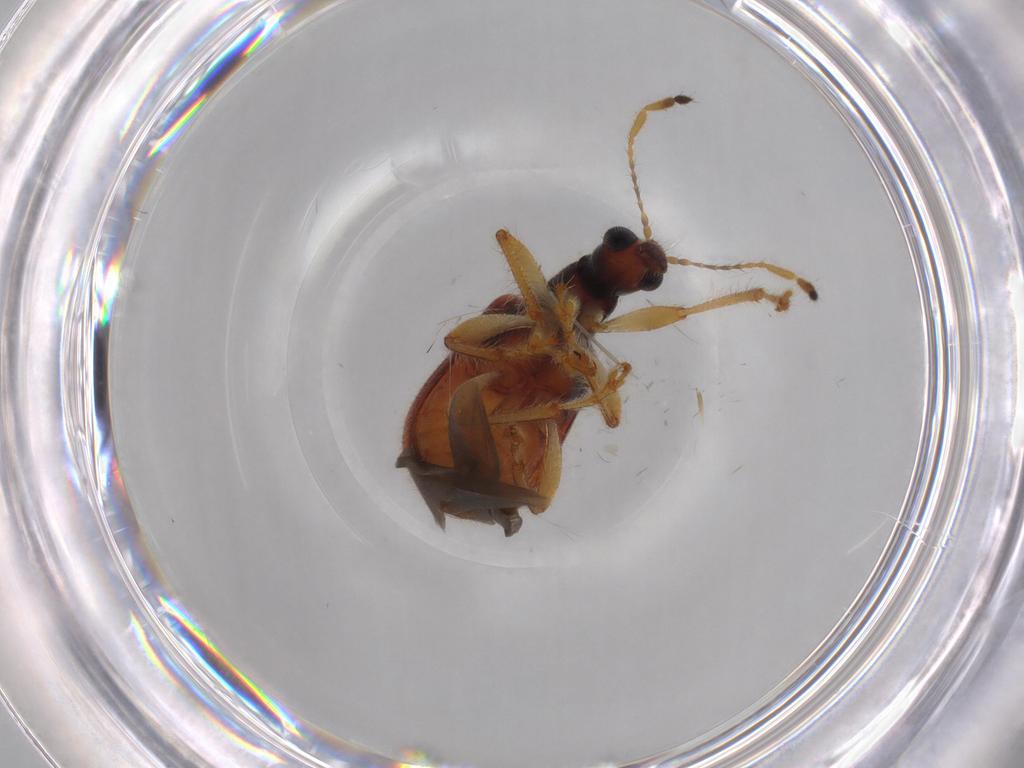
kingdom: Animalia
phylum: Arthropoda
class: Insecta
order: Coleoptera
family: Attelabidae
